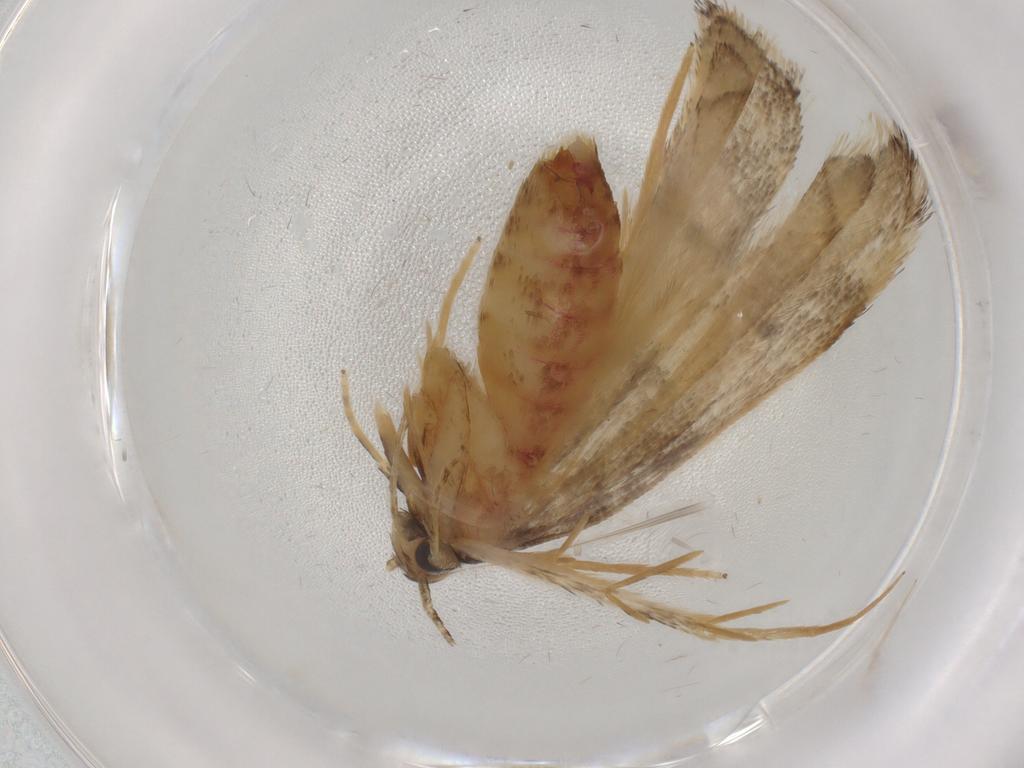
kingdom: Animalia
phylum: Arthropoda
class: Insecta
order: Lepidoptera
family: Lecithoceridae
